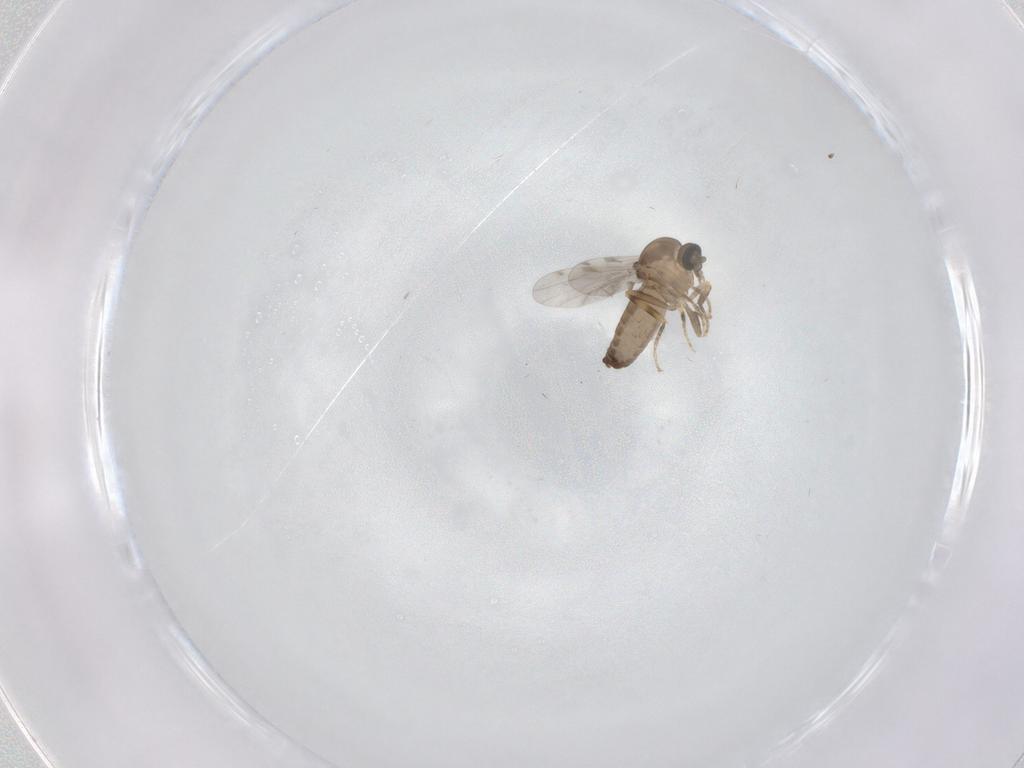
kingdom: Animalia
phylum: Arthropoda
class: Insecta
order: Diptera
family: Ceratopogonidae
